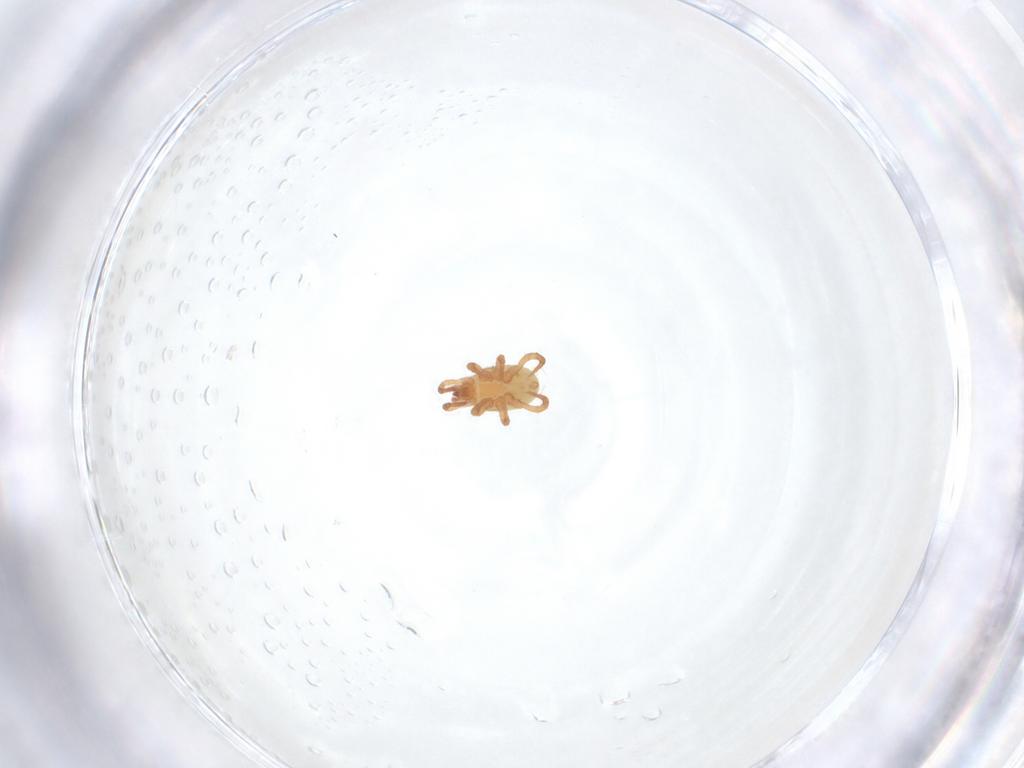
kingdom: Animalia
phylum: Arthropoda
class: Arachnida
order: Mesostigmata
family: Parasitidae
